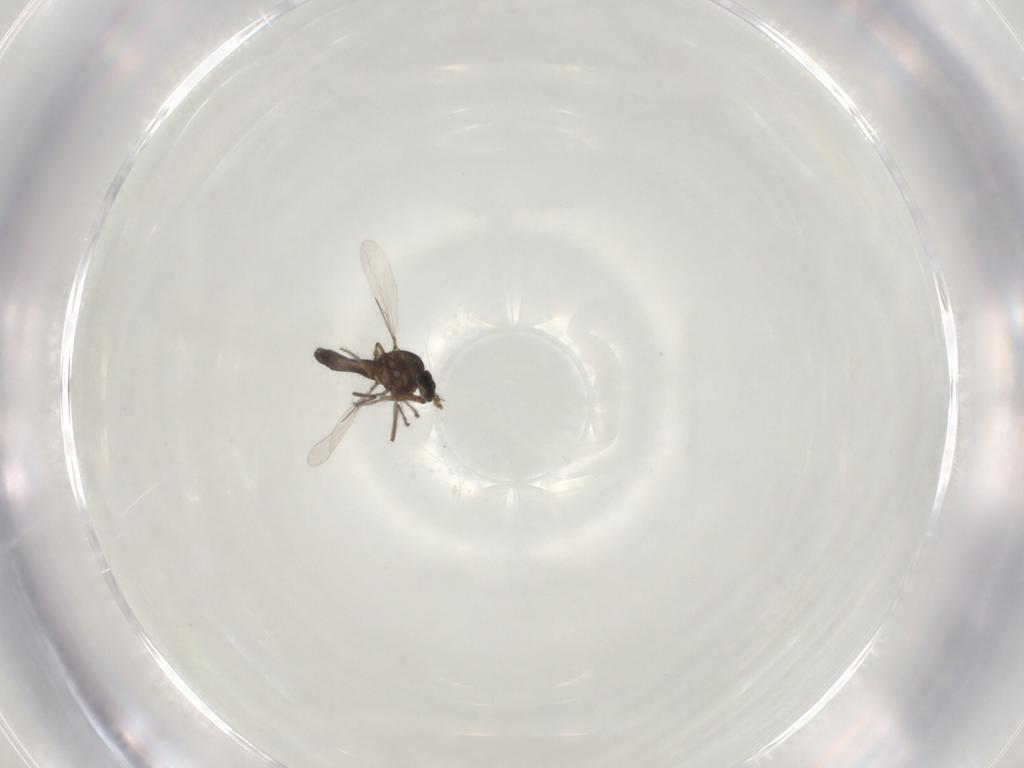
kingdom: Animalia
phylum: Arthropoda
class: Insecta
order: Diptera
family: Pipunculidae
